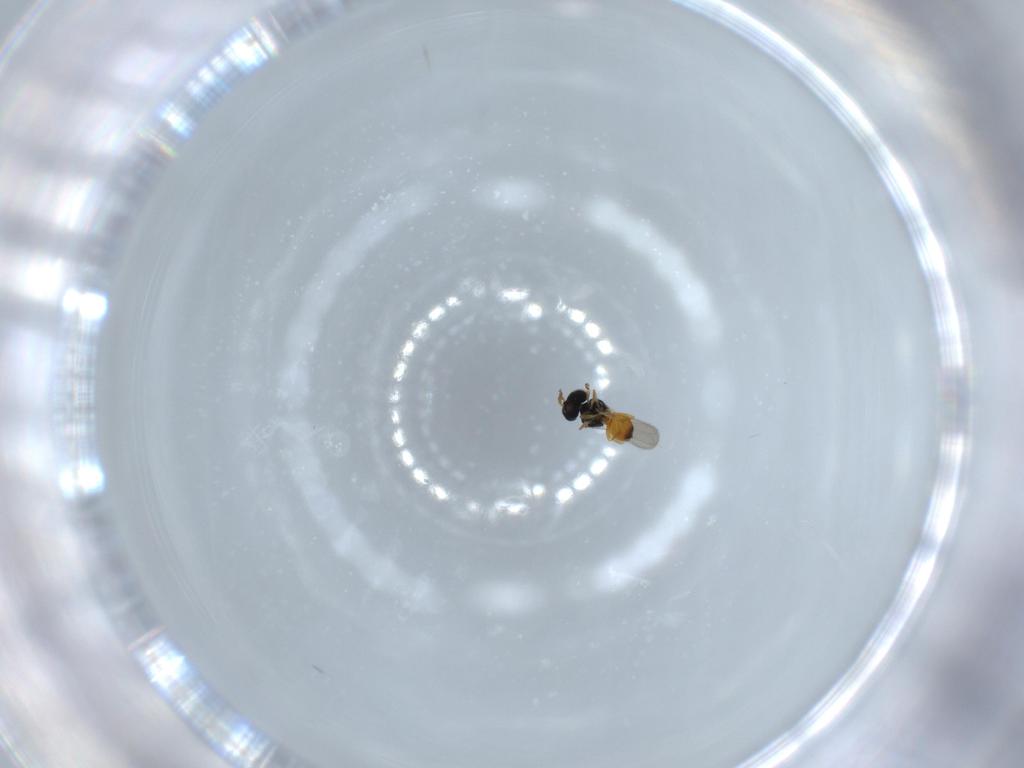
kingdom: Animalia
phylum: Arthropoda
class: Insecta
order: Hymenoptera
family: Scelionidae
